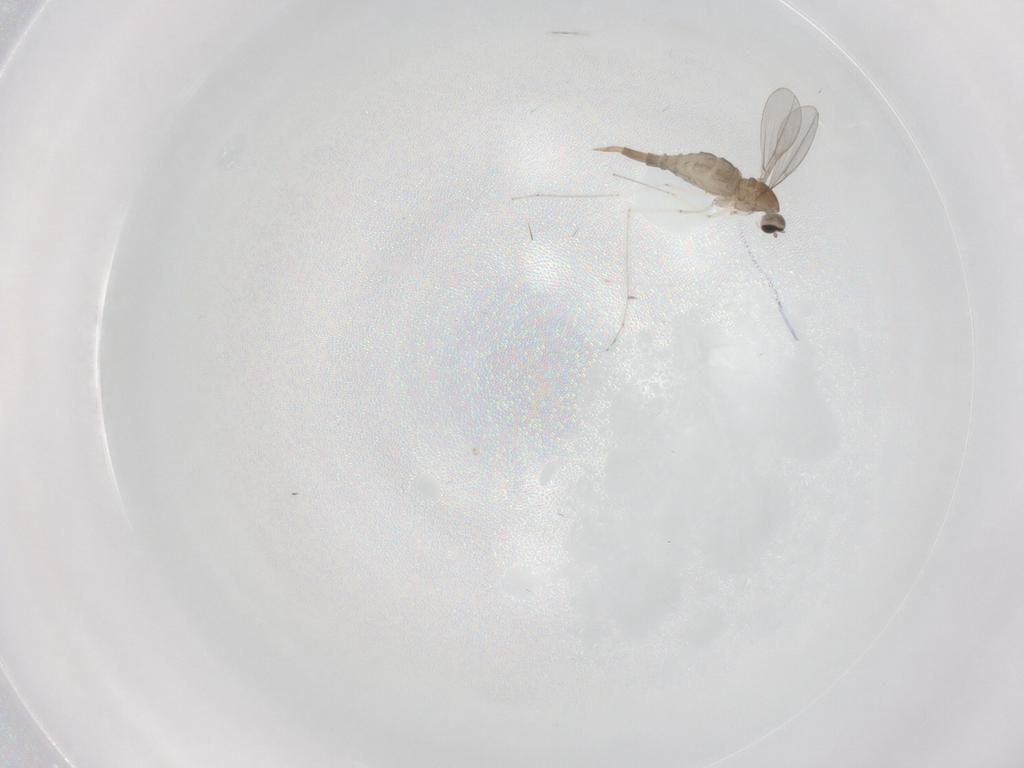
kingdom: Animalia
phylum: Arthropoda
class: Insecta
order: Diptera
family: Cecidomyiidae
